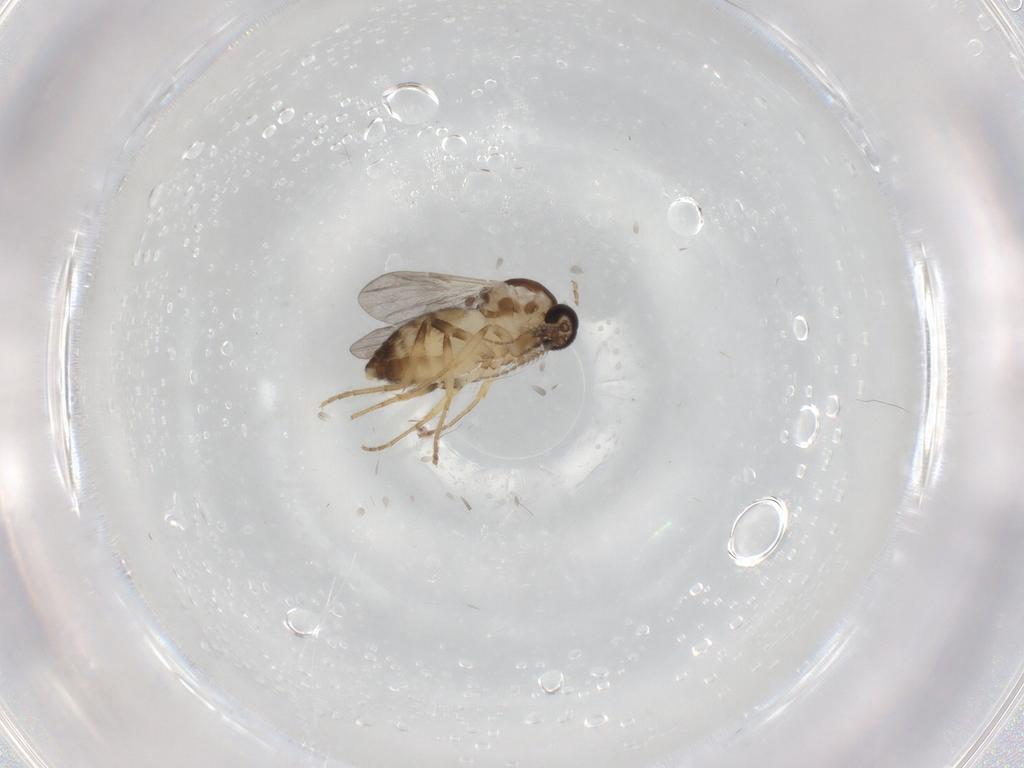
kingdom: Animalia
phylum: Arthropoda
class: Insecta
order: Diptera
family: Ceratopogonidae
